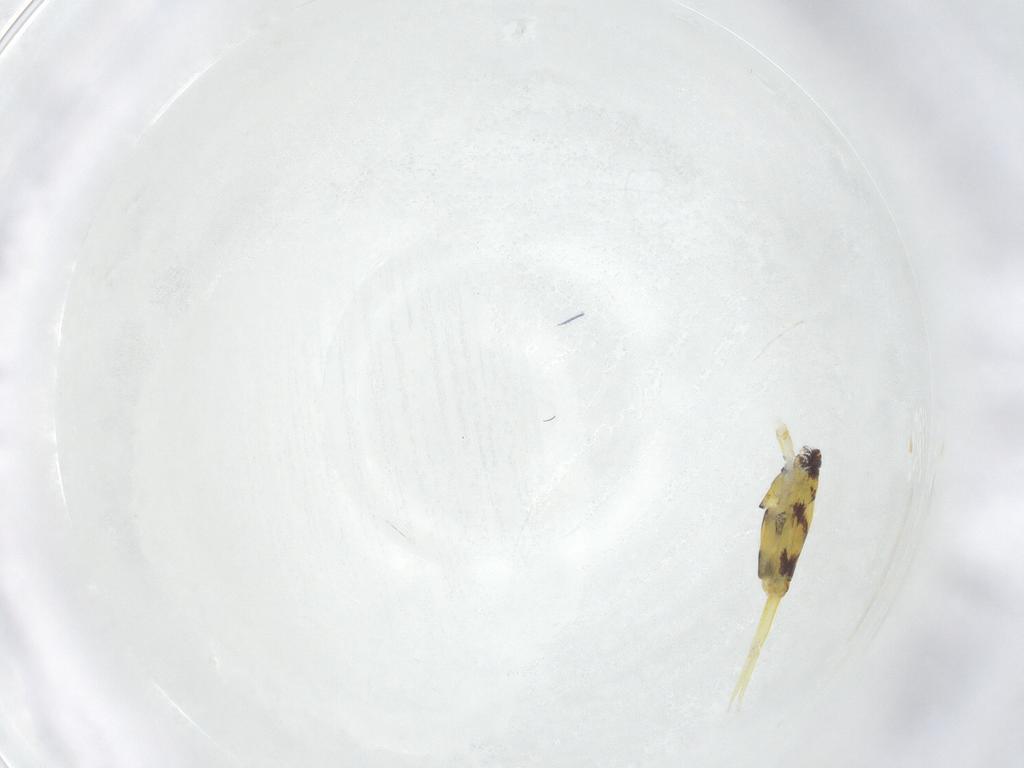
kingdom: Animalia
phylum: Arthropoda
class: Collembola
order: Entomobryomorpha
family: Entomobryidae
